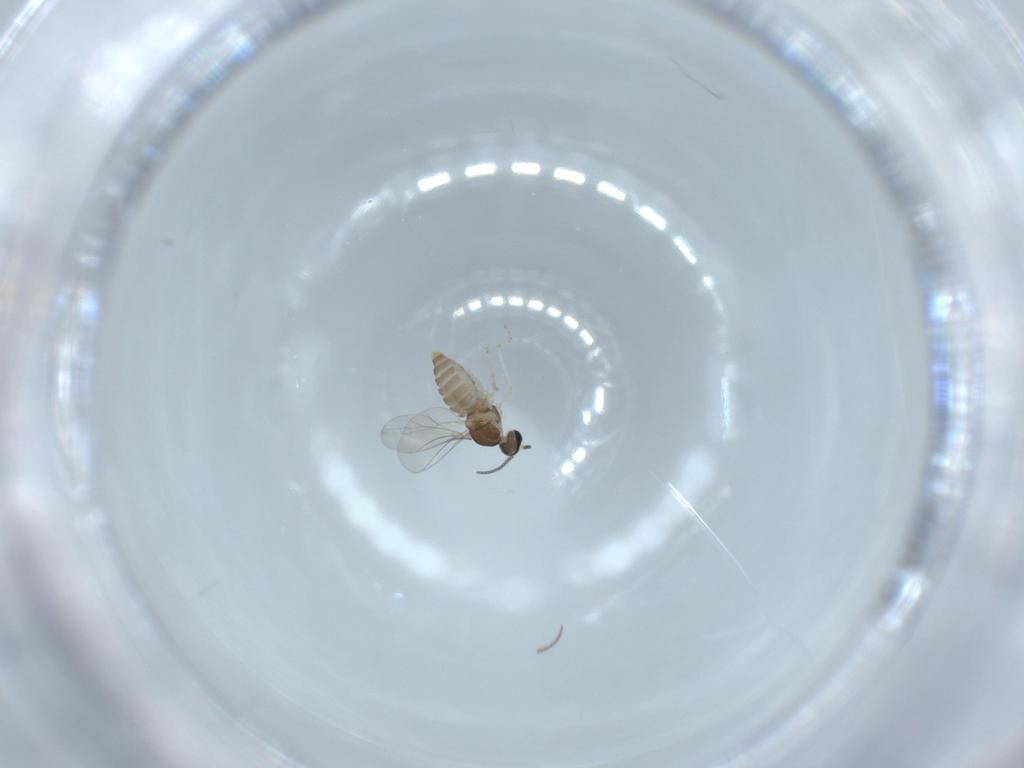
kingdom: Animalia
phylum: Arthropoda
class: Insecta
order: Diptera
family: Cecidomyiidae
